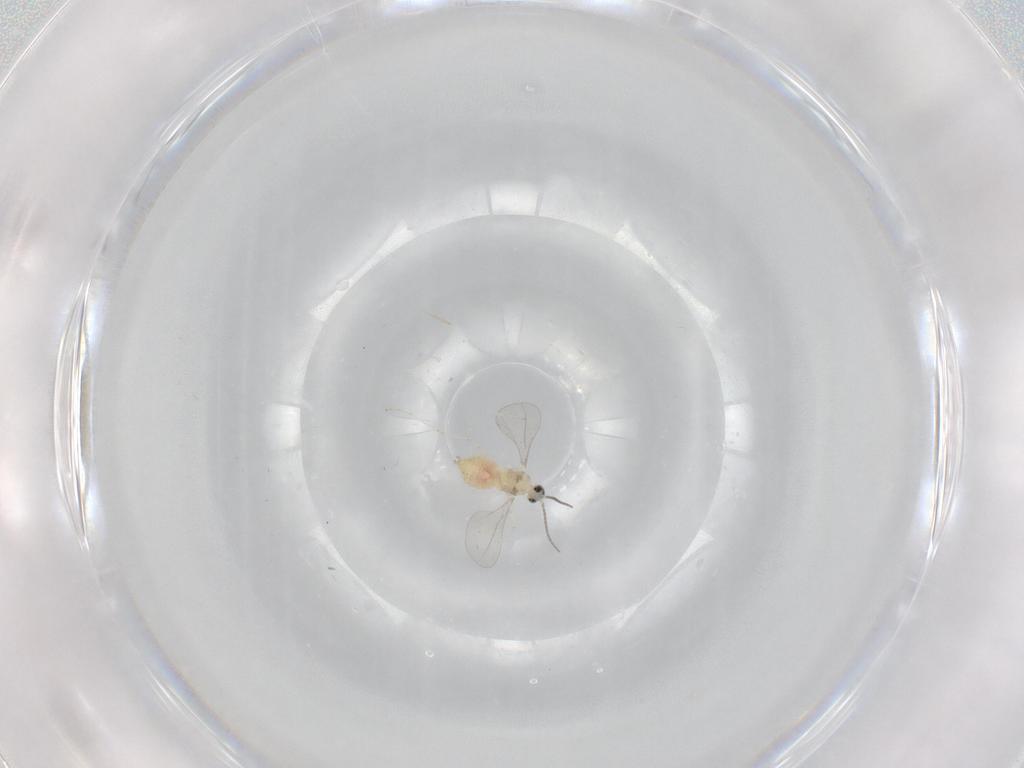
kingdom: Animalia
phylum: Arthropoda
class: Insecta
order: Diptera
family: Cecidomyiidae
